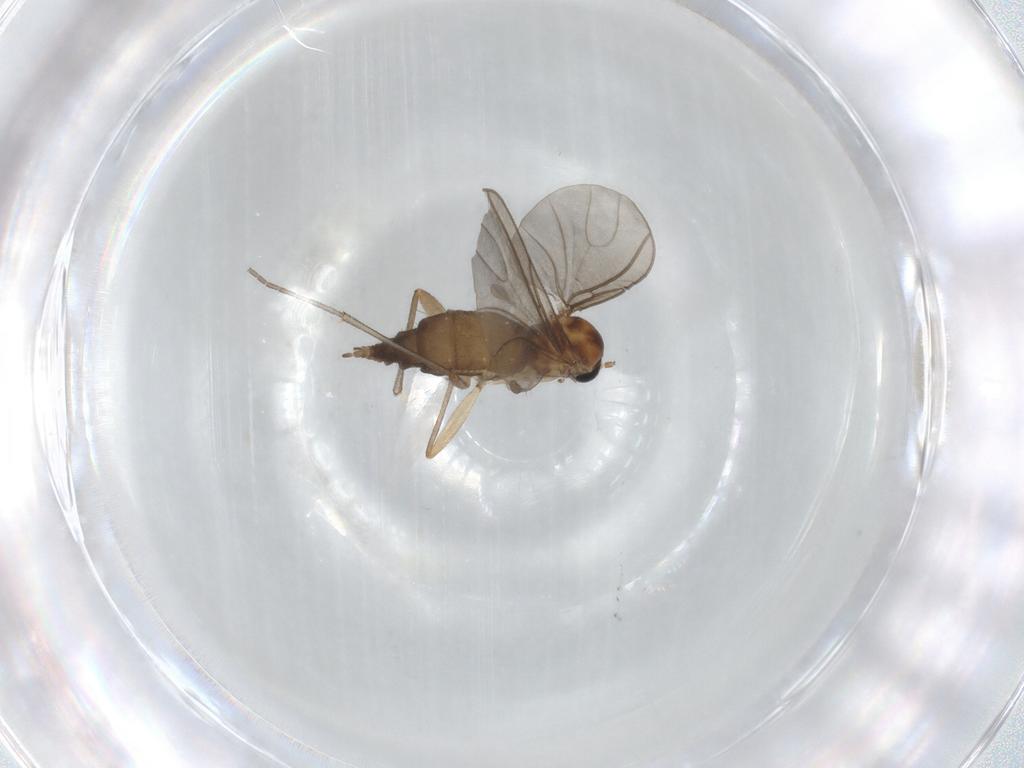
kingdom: Animalia
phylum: Arthropoda
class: Insecta
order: Diptera
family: Sciaridae
